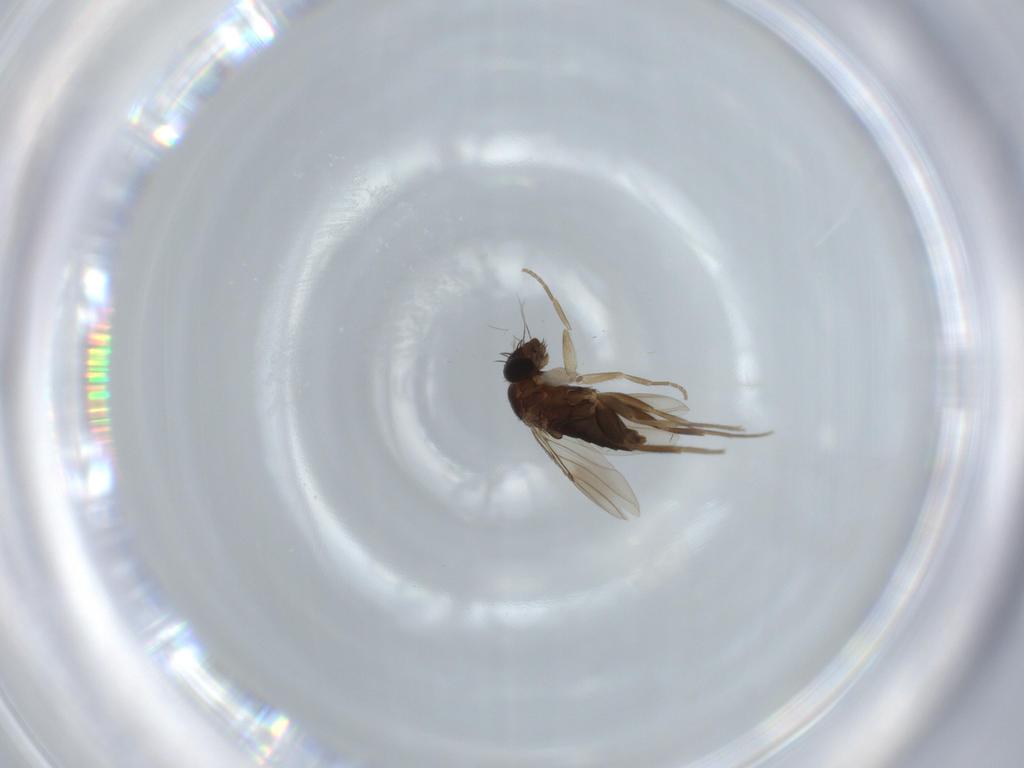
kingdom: Animalia
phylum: Arthropoda
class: Insecta
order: Diptera
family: Phoridae
